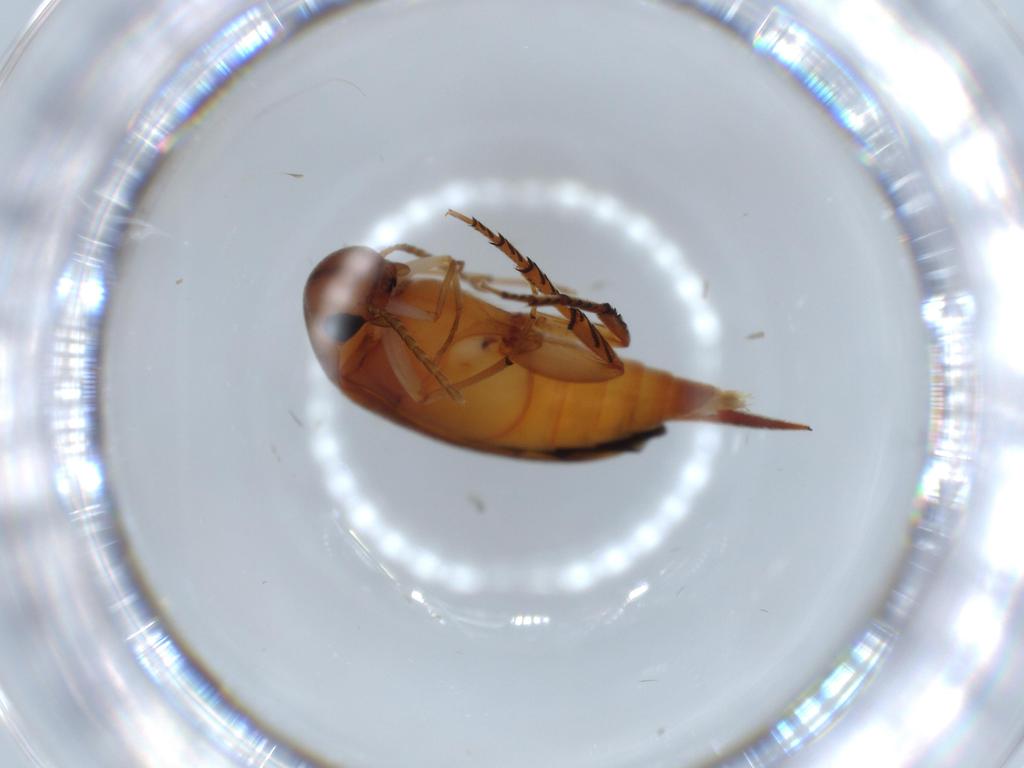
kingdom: Animalia
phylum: Arthropoda
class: Insecta
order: Coleoptera
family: Mordellidae
